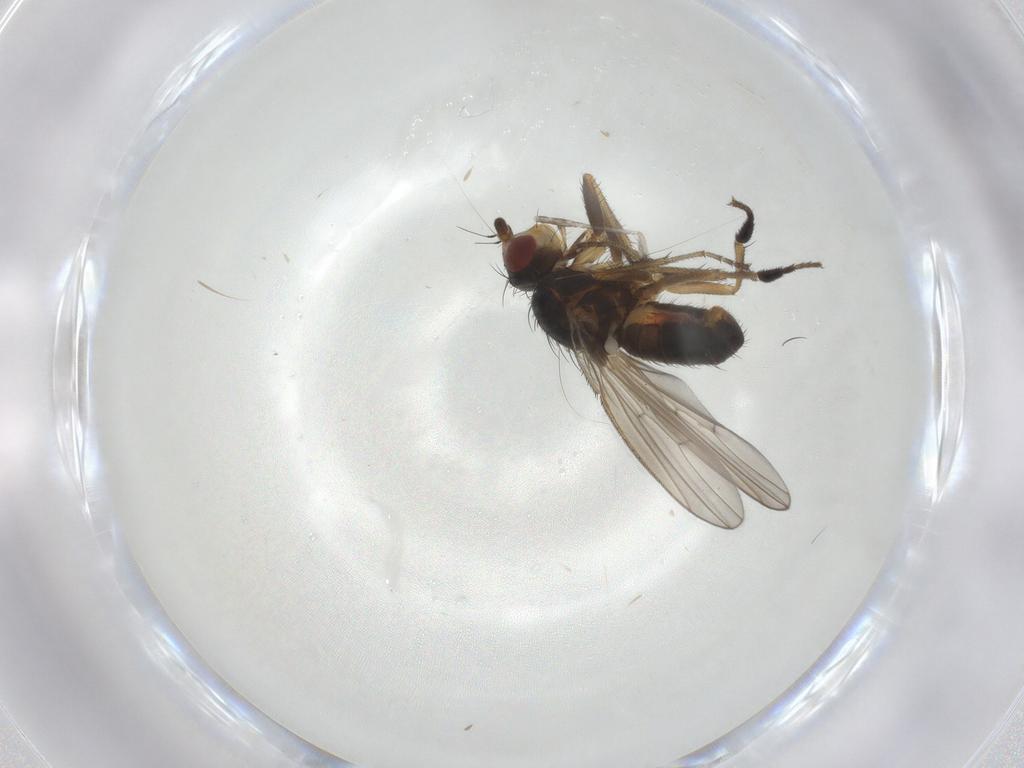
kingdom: Animalia
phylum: Arthropoda
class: Insecta
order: Diptera
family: Heleomyzidae
